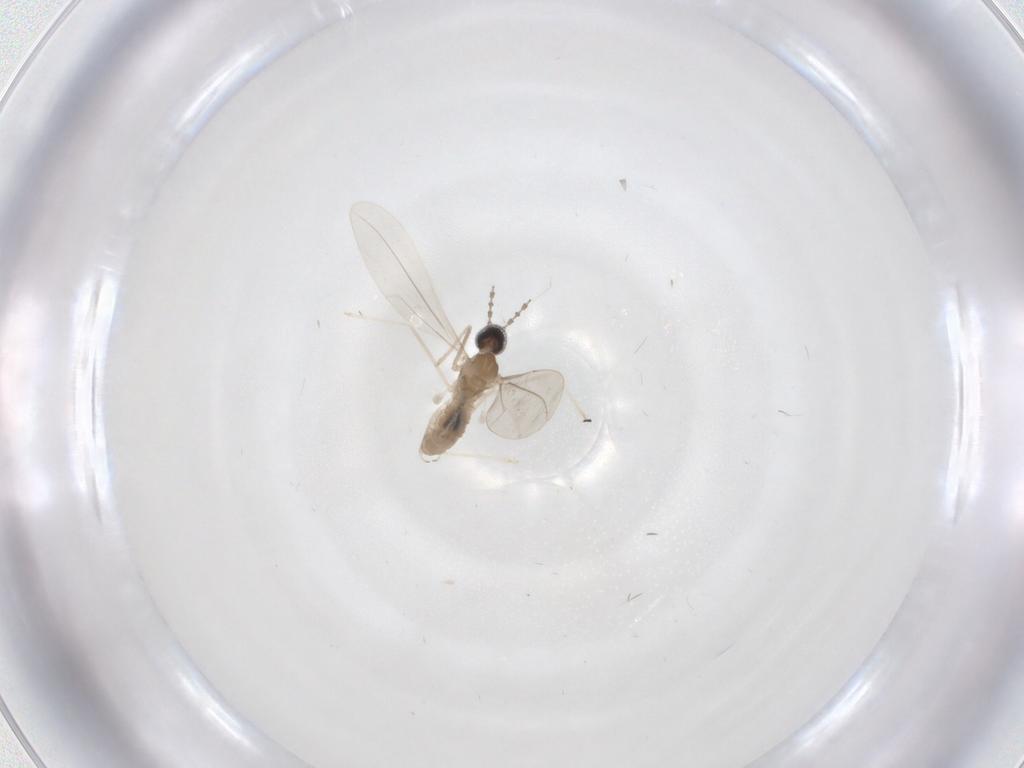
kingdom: Animalia
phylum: Arthropoda
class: Insecta
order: Diptera
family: Cecidomyiidae
